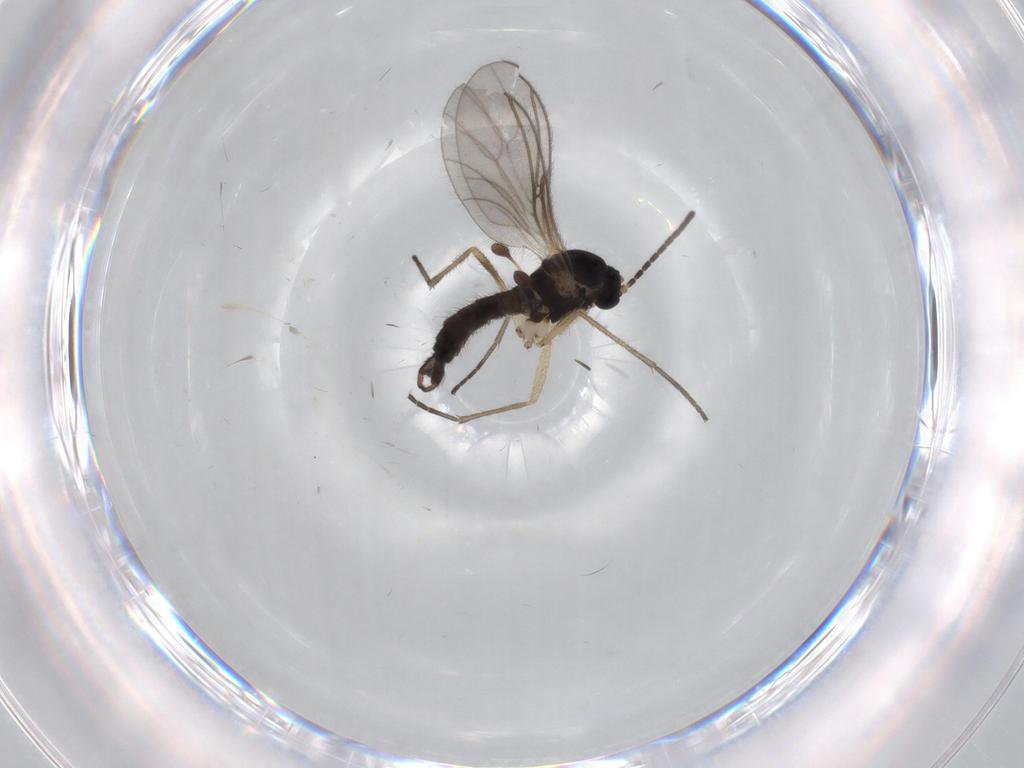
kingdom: Animalia
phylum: Arthropoda
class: Insecta
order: Diptera
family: Sciaridae
